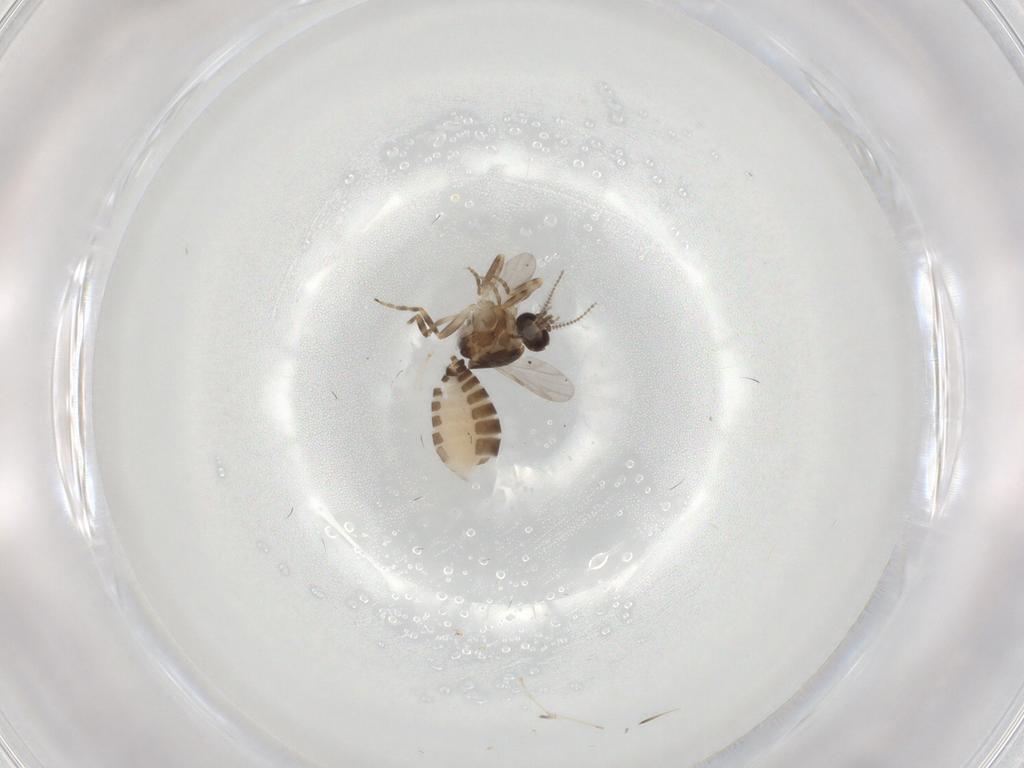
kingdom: Animalia
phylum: Arthropoda
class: Insecta
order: Diptera
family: Ceratopogonidae
